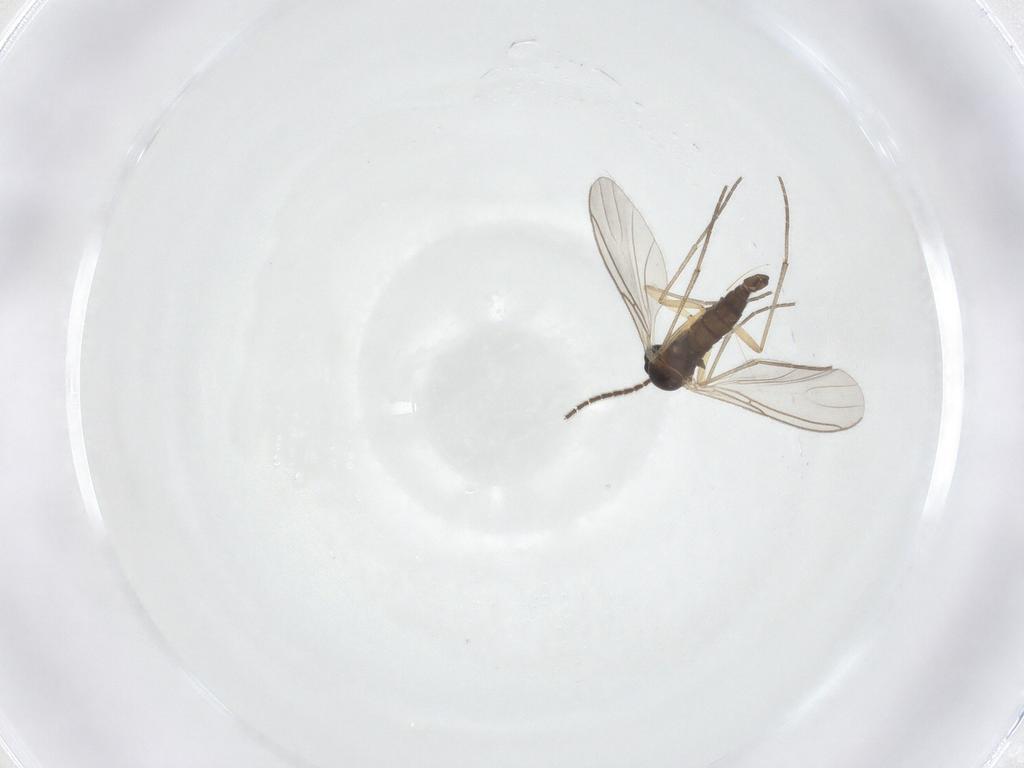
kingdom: Animalia
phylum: Arthropoda
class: Insecta
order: Diptera
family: Sciaridae
